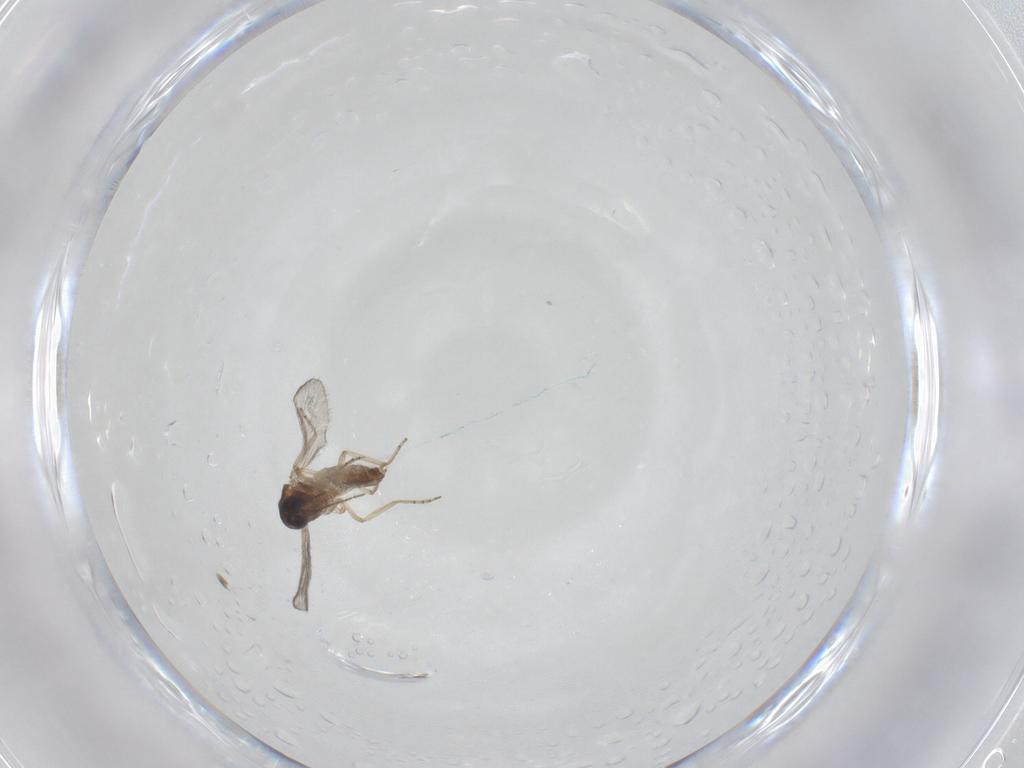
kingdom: Animalia
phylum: Arthropoda
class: Insecta
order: Diptera
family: Ceratopogonidae
